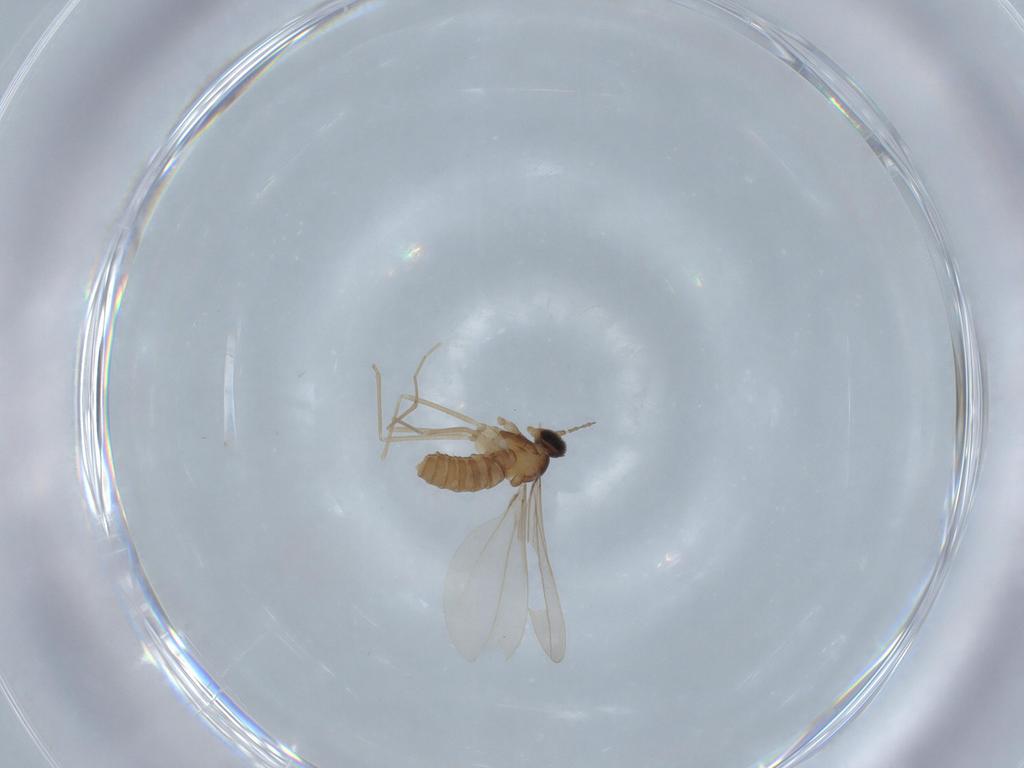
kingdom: Animalia
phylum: Arthropoda
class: Insecta
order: Diptera
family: Cecidomyiidae
